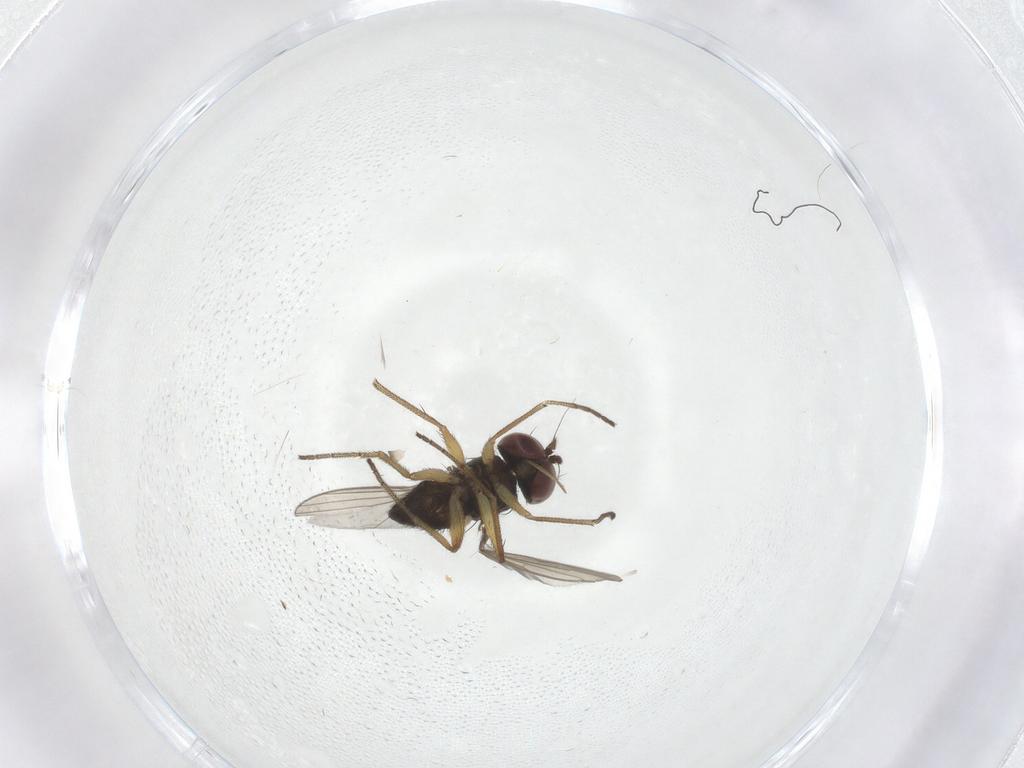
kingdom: Animalia
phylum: Arthropoda
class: Insecta
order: Diptera
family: Dolichopodidae
